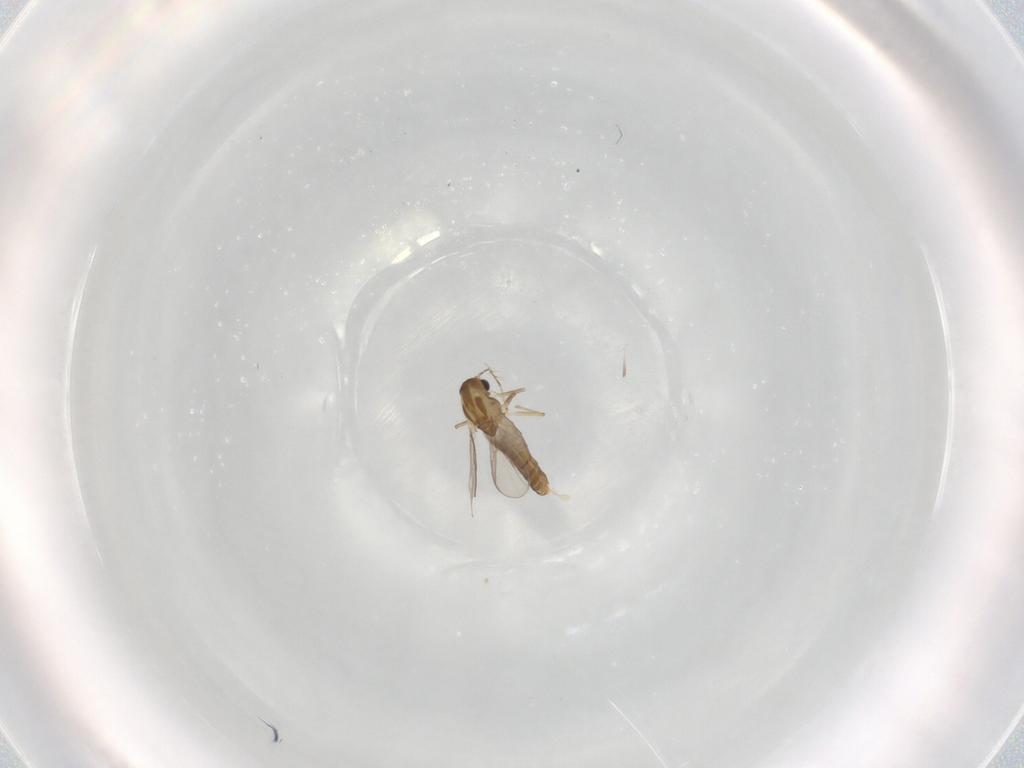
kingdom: Animalia
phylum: Arthropoda
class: Insecta
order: Diptera
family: Chironomidae
